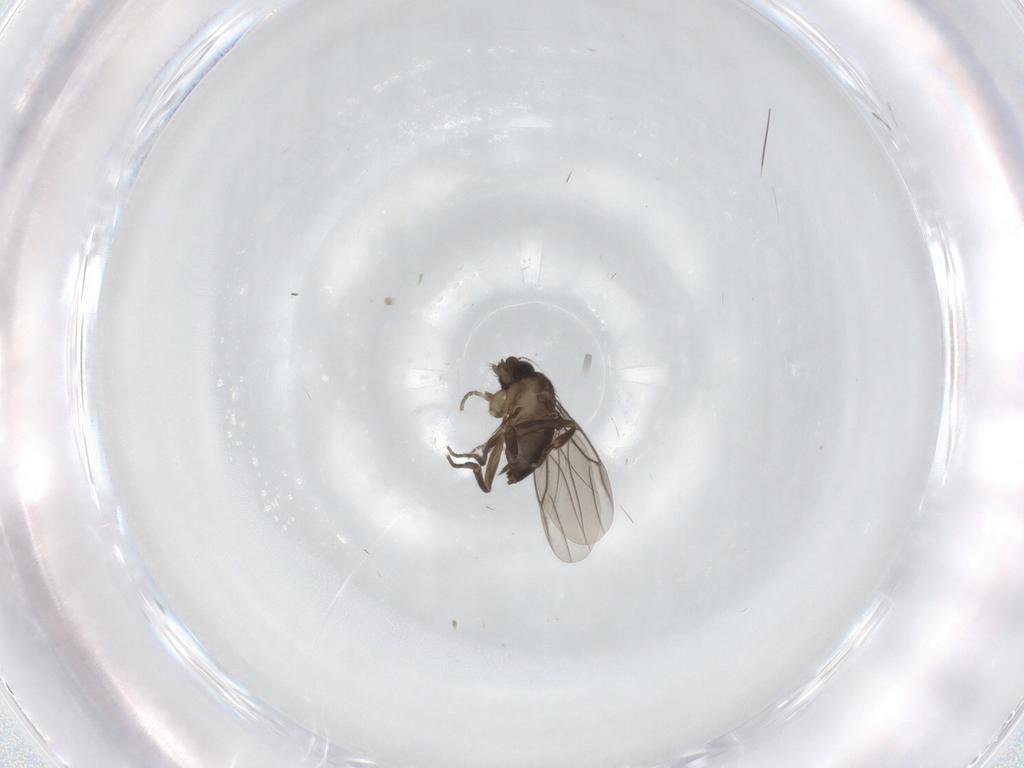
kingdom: Animalia
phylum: Arthropoda
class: Insecta
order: Diptera
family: Phoridae
